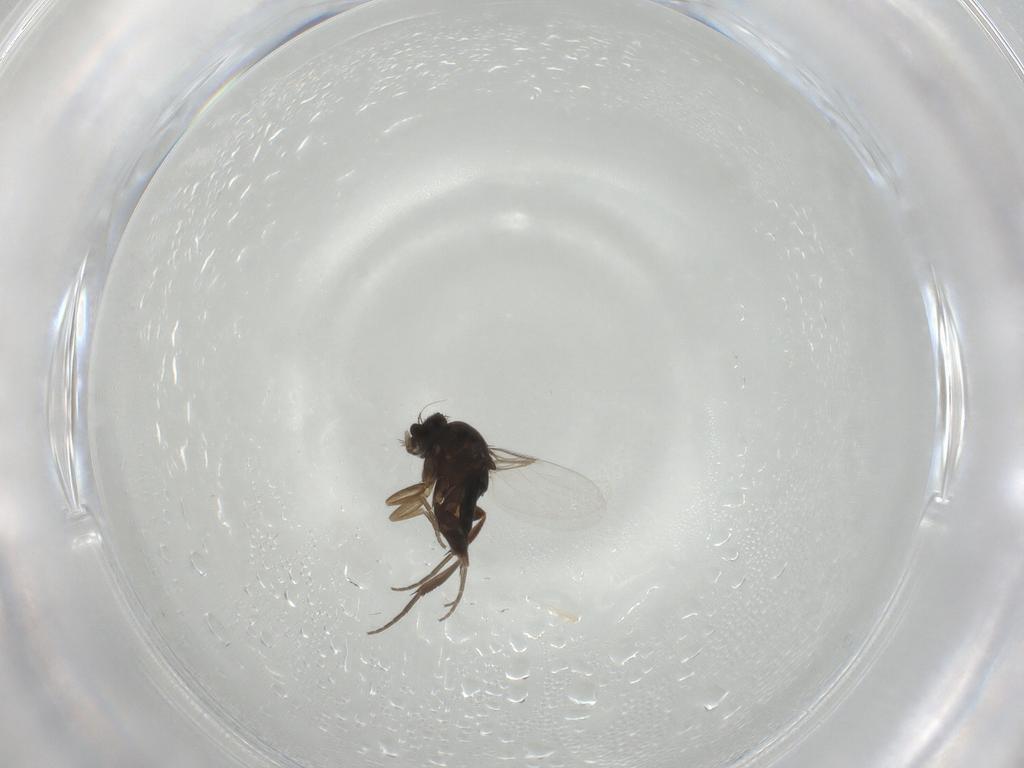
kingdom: Animalia
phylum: Arthropoda
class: Insecta
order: Diptera
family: Phoridae
